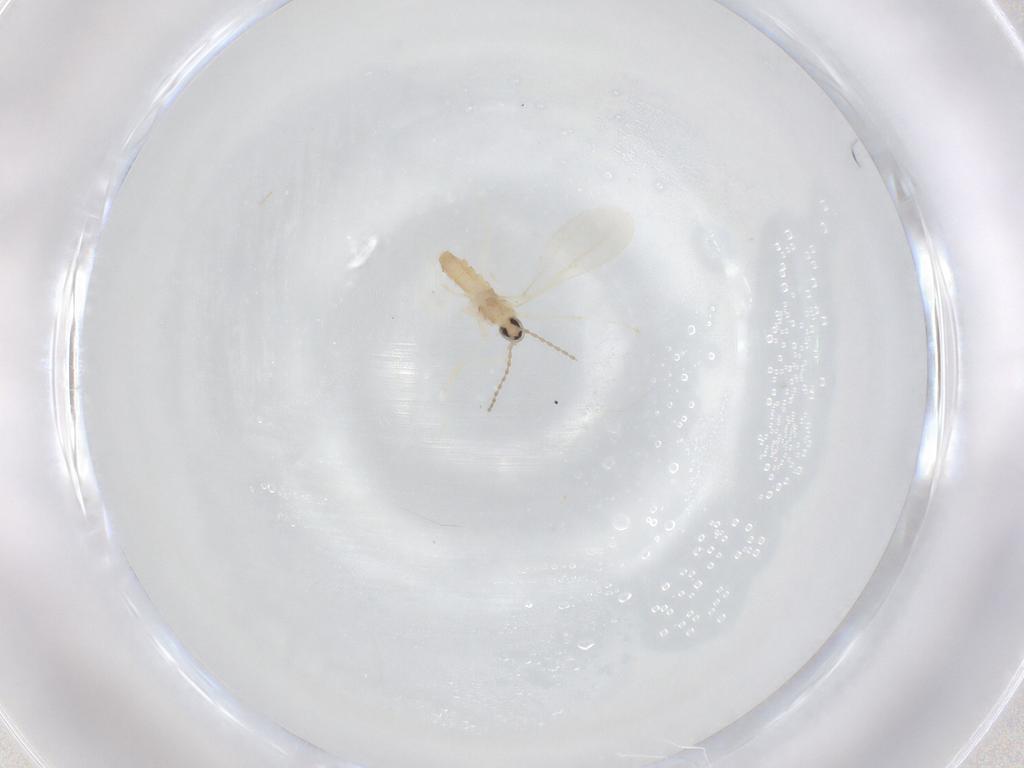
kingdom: Animalia
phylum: Arthropoda
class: Insecta
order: Diptera
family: Cecidomyiidae
